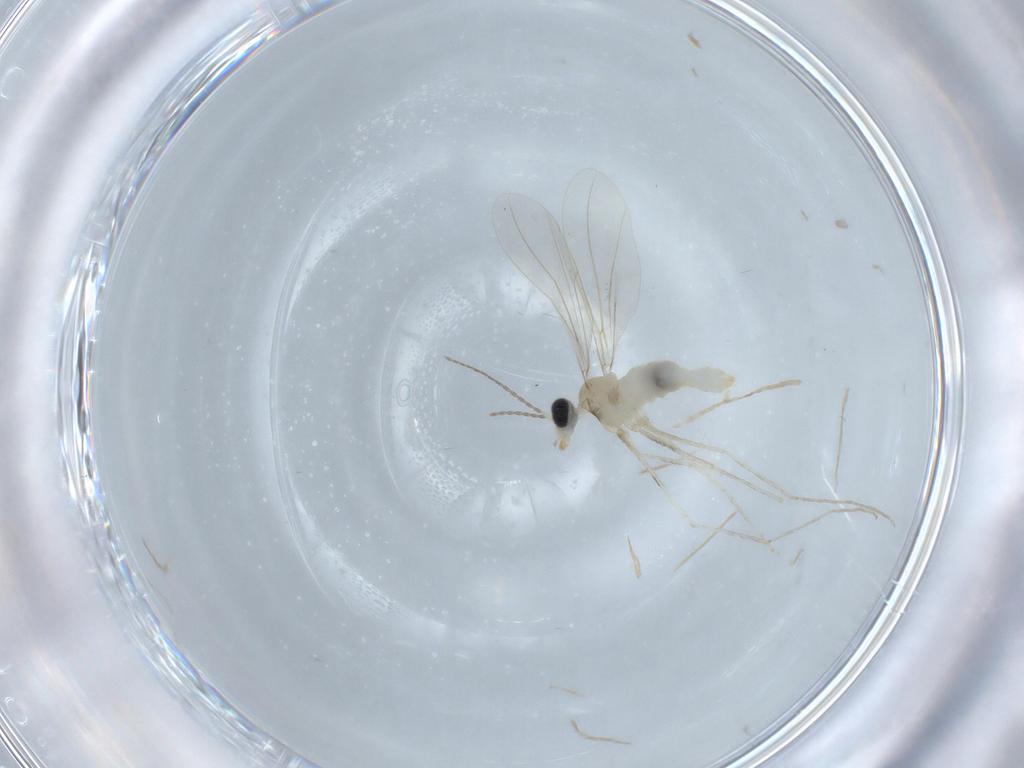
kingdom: Animalia
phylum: Arthropoda
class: Insecta
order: Diptera
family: Cecidomyiidae
